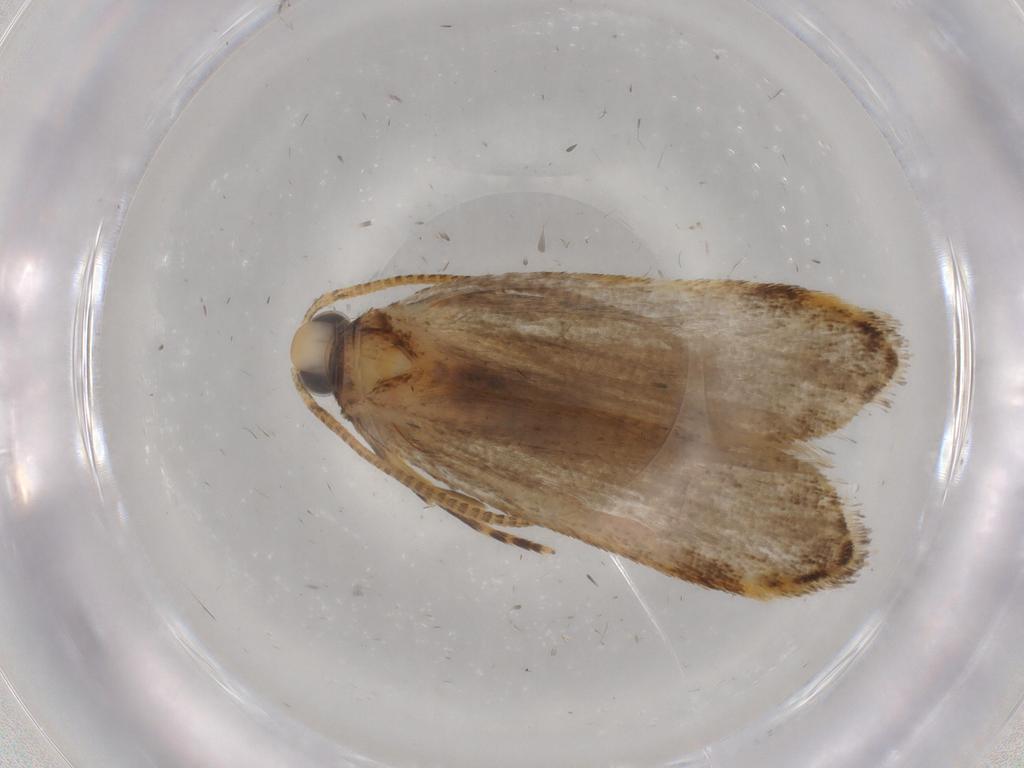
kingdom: Animalia
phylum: Arthropoda
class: Insecta
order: Lepidoptera
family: Autostichidae
